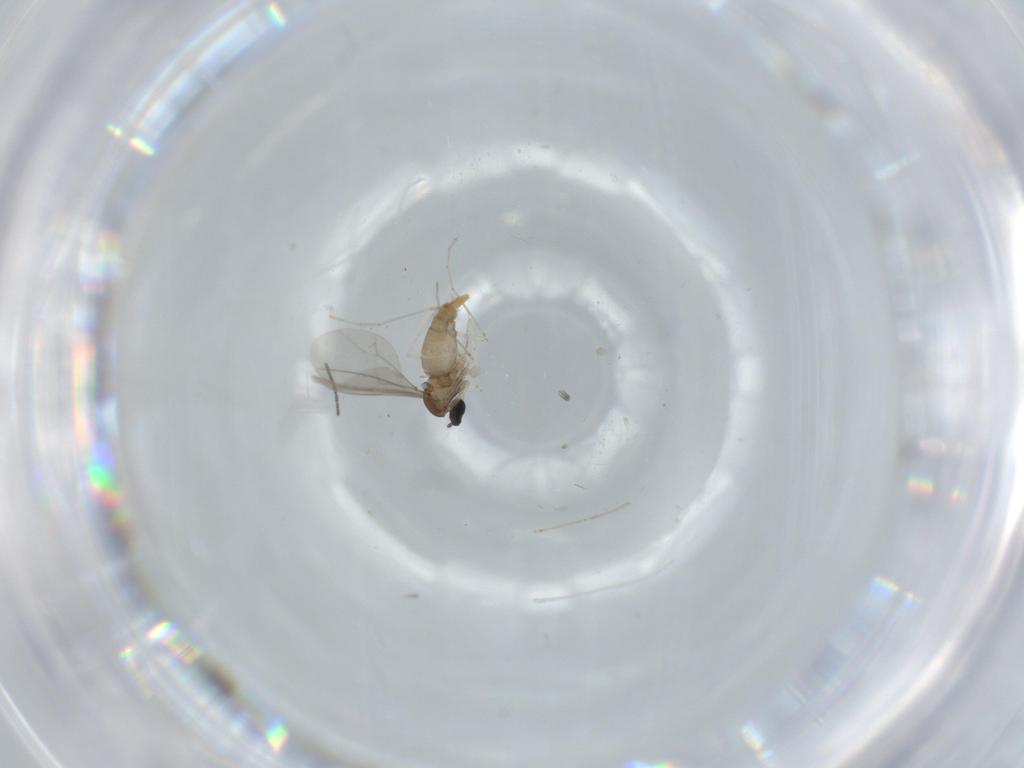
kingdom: Animalia
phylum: Arthropoda
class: Insecta
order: Diptera
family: Sciaridae
